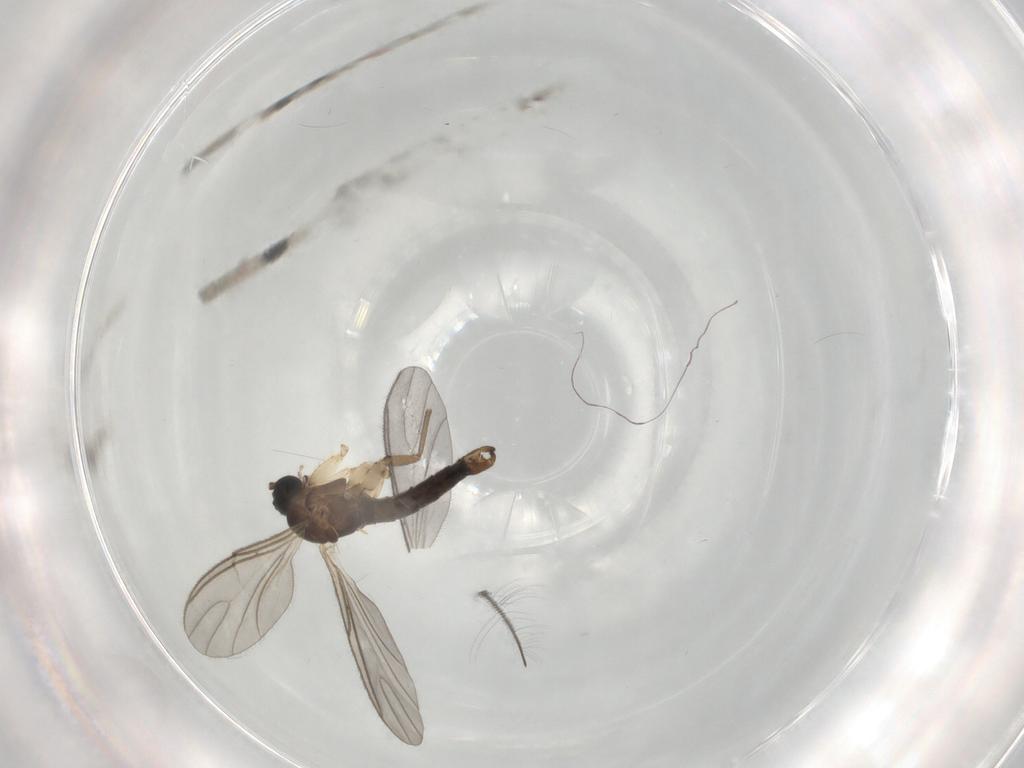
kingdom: Animalia
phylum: Arthropoda
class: Insecta
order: Diptera
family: Sciaridae
